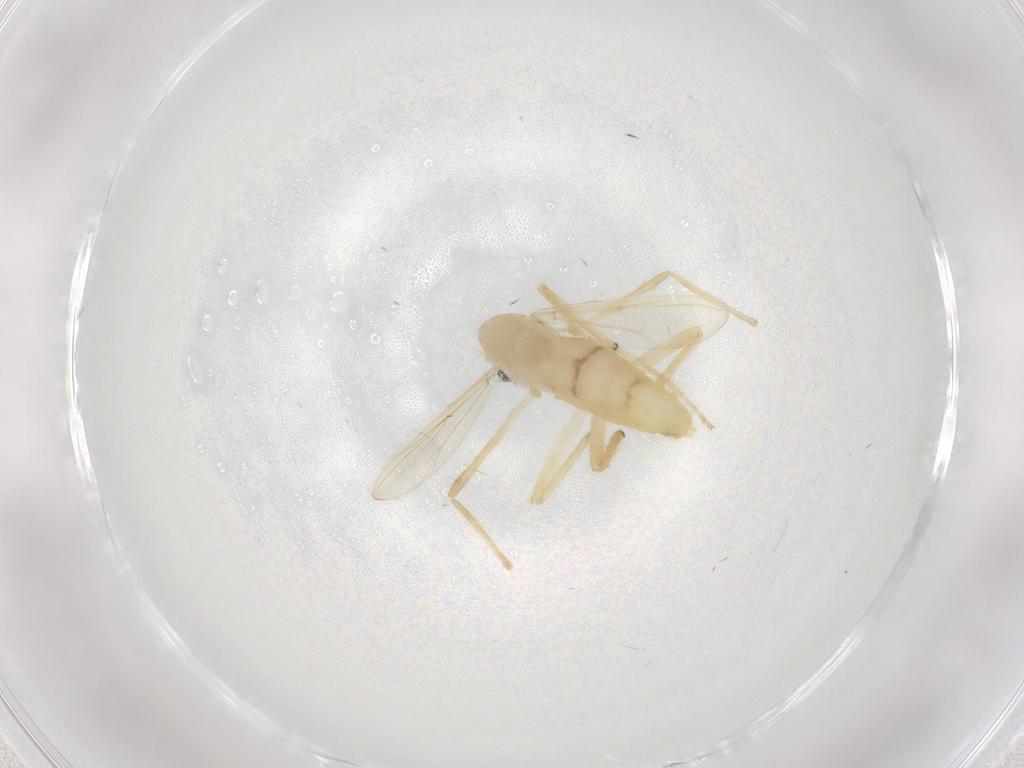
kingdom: Animalia
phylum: Arthropoda
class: Insecta
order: Diptera
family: Chironomidae
